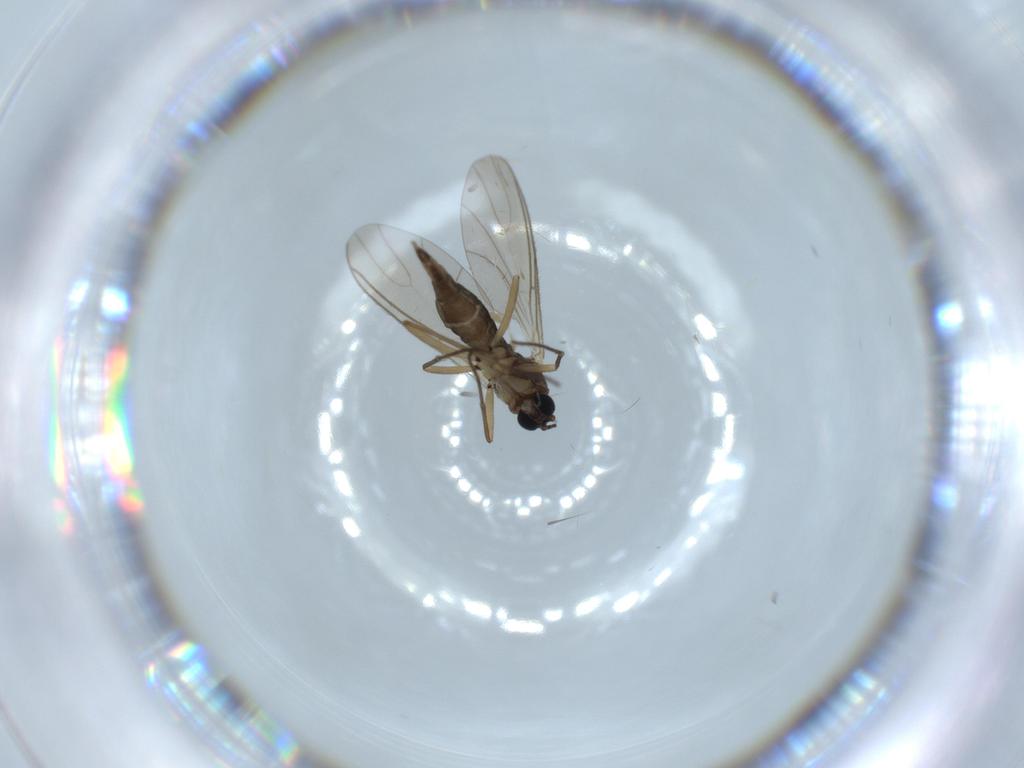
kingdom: Animalia
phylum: Arthropoda
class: Insecta
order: Diptera
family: Sciaridae
